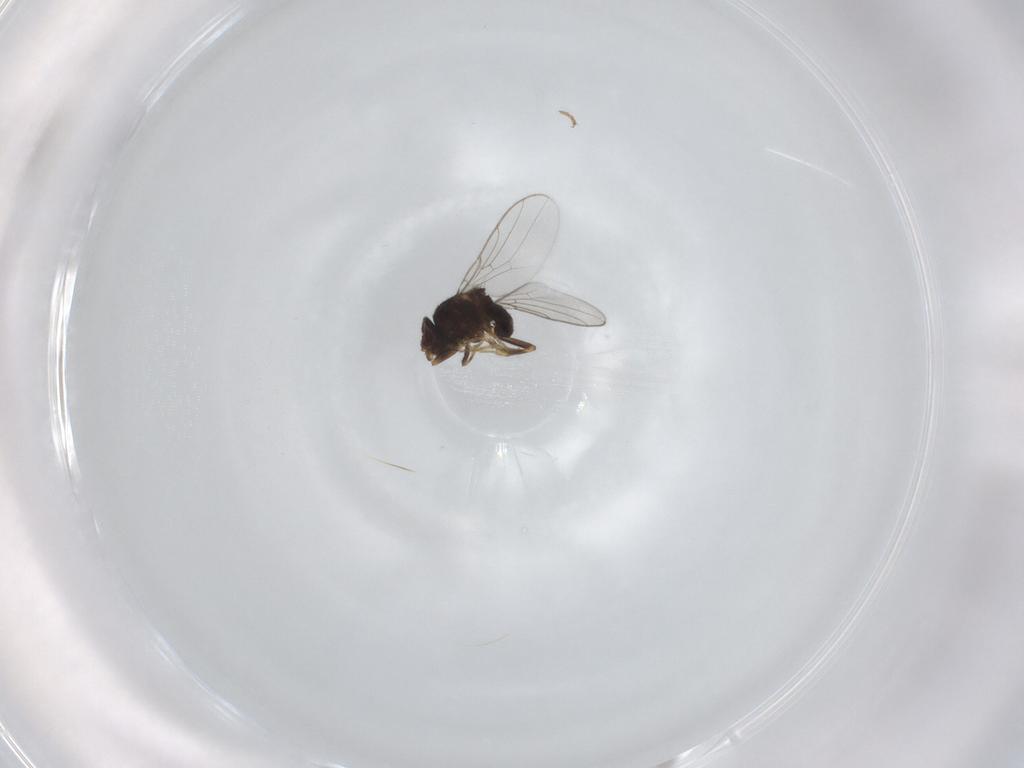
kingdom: Animalia
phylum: Arthropoda
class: Insecta
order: Diptera
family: Chloropidae
